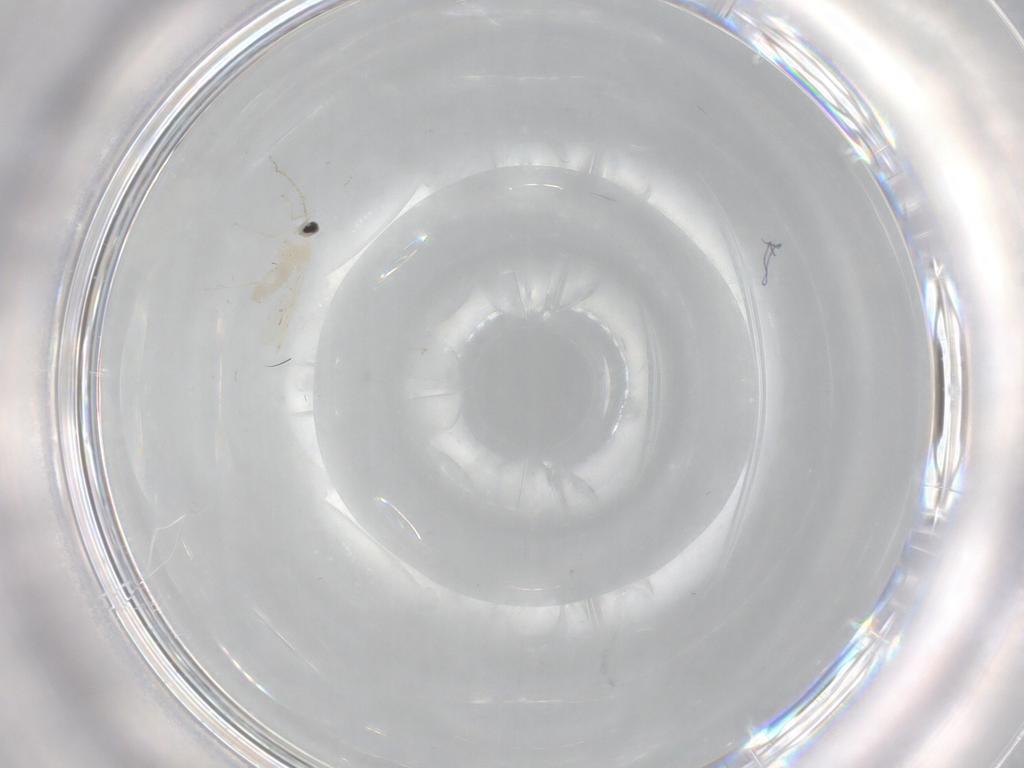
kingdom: Animalia
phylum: Arthropoda
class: Insecta
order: Diptera
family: Cecidomyiidae
